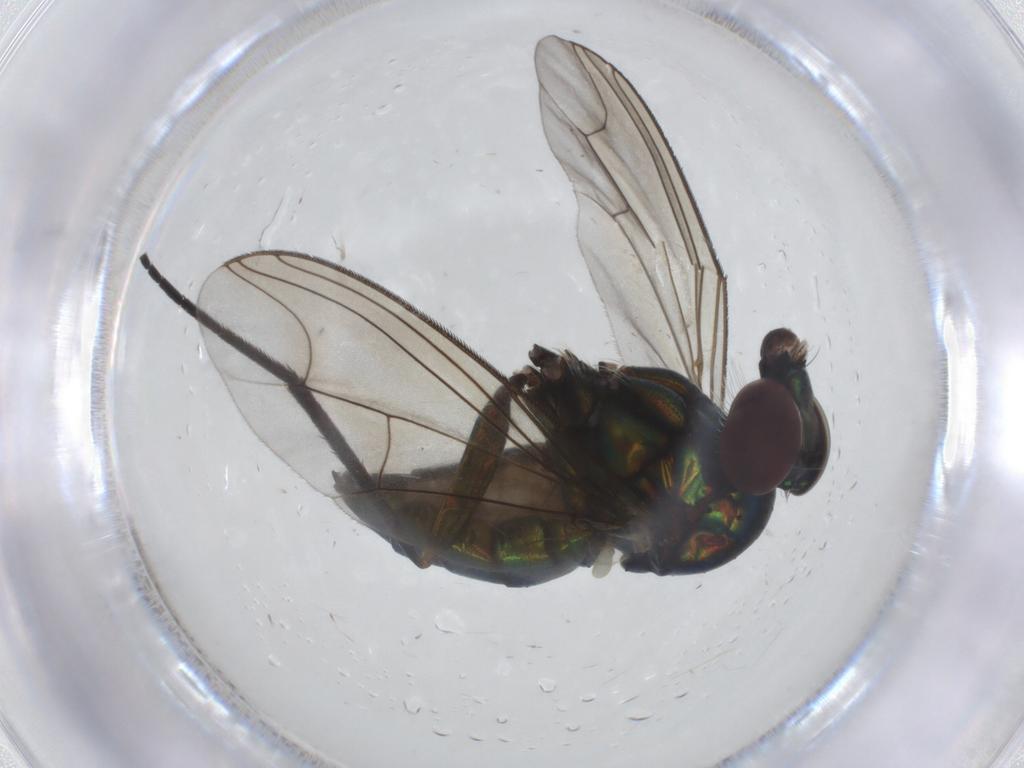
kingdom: Animalia
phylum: Arthropoda
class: Insecta
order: Diptera
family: Dolichopodidae
